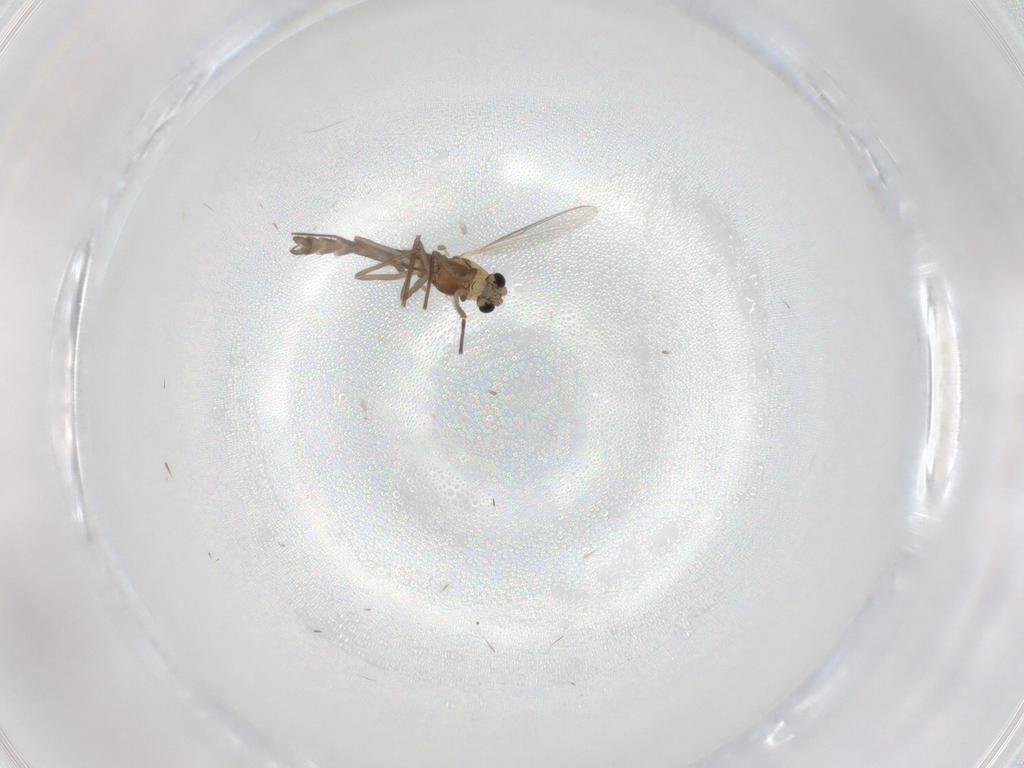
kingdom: Animalia
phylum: Arthropoda
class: Insecta
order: Diptera
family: Chironomidae
